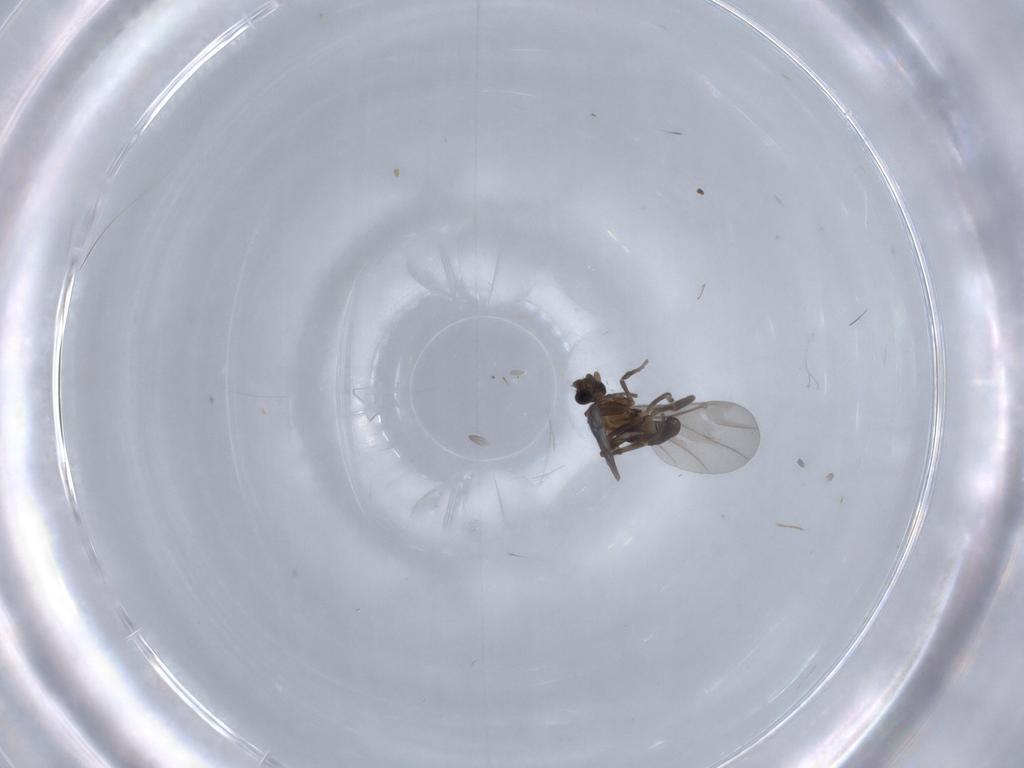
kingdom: Animalia
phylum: Arthropoda
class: Insecta
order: Diptera
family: Phoridae
